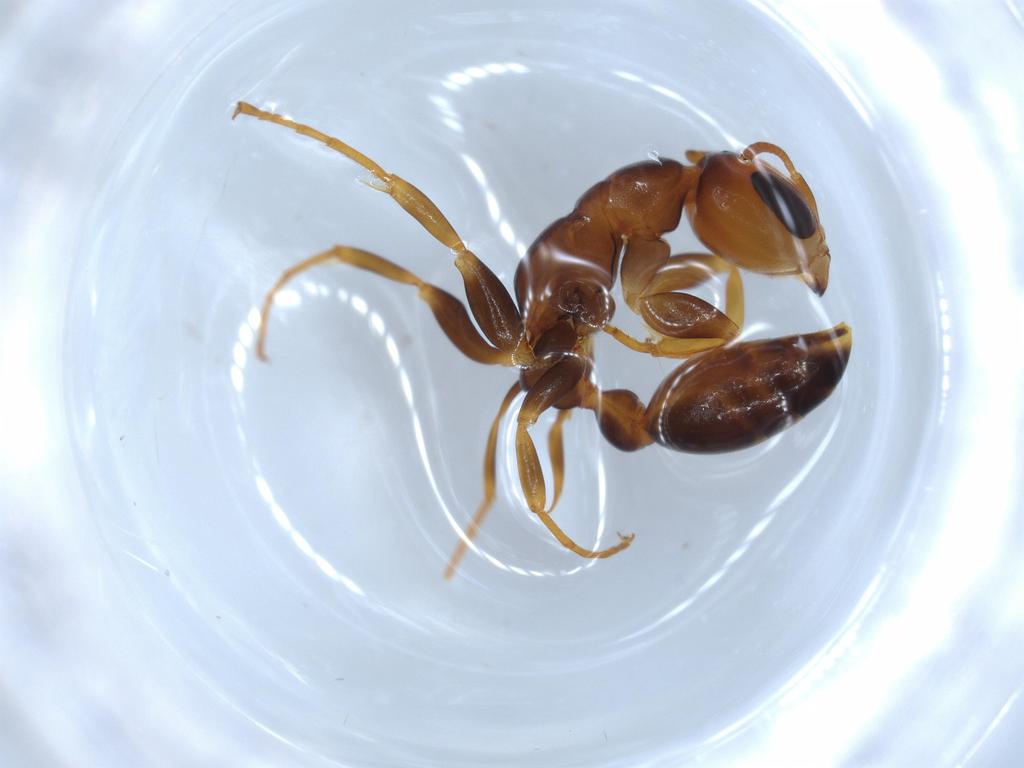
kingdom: Animalia
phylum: Arthropoda
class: Insecta
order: Hymenoptera
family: Formicidae
